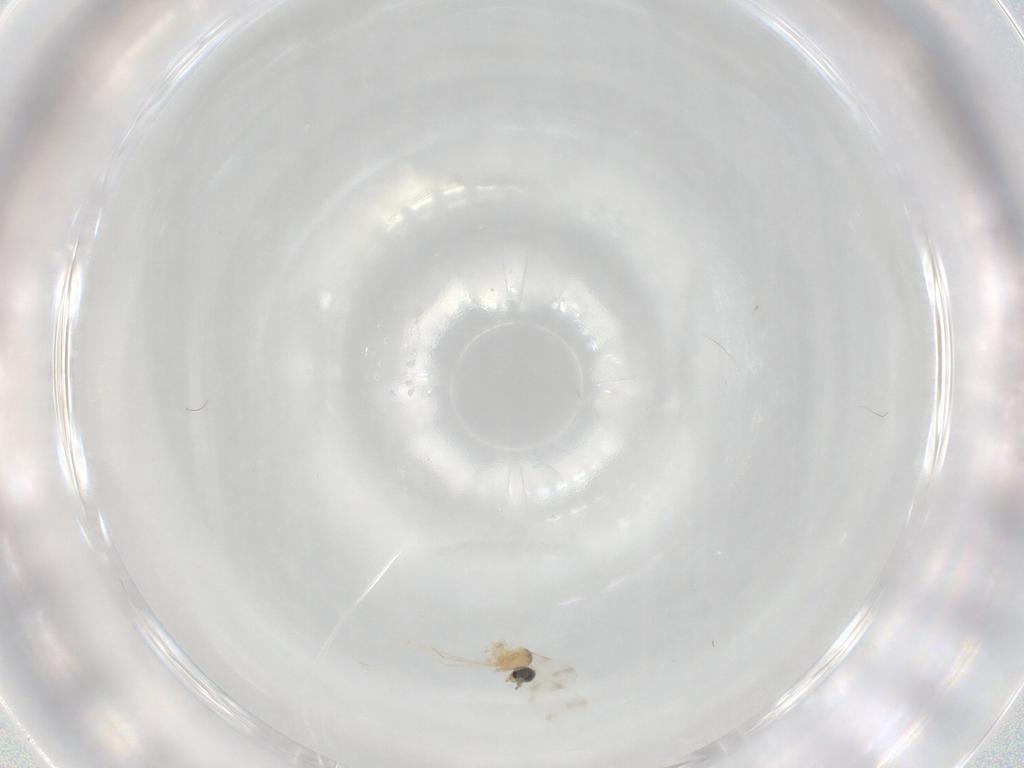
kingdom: Animalia
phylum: Arthropoda
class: Insecta
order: Diptera
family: Cecidomyiidae
